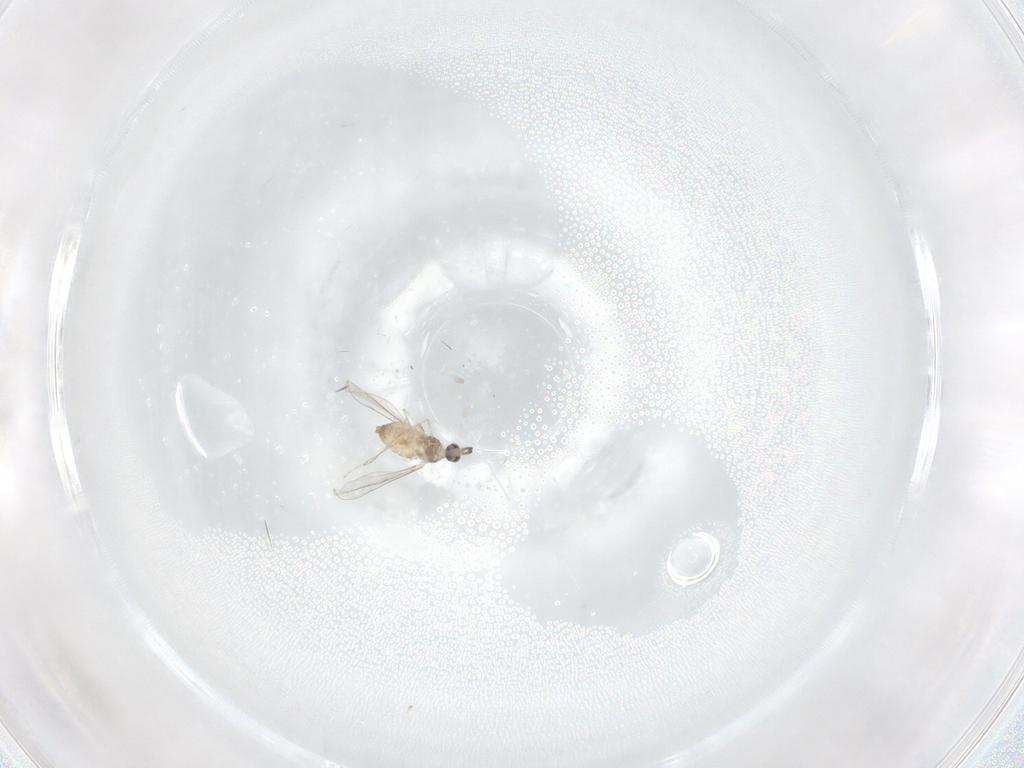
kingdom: Animalia
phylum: Arthropoda
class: Insecta
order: Diptera
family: Cecidomyiidae
